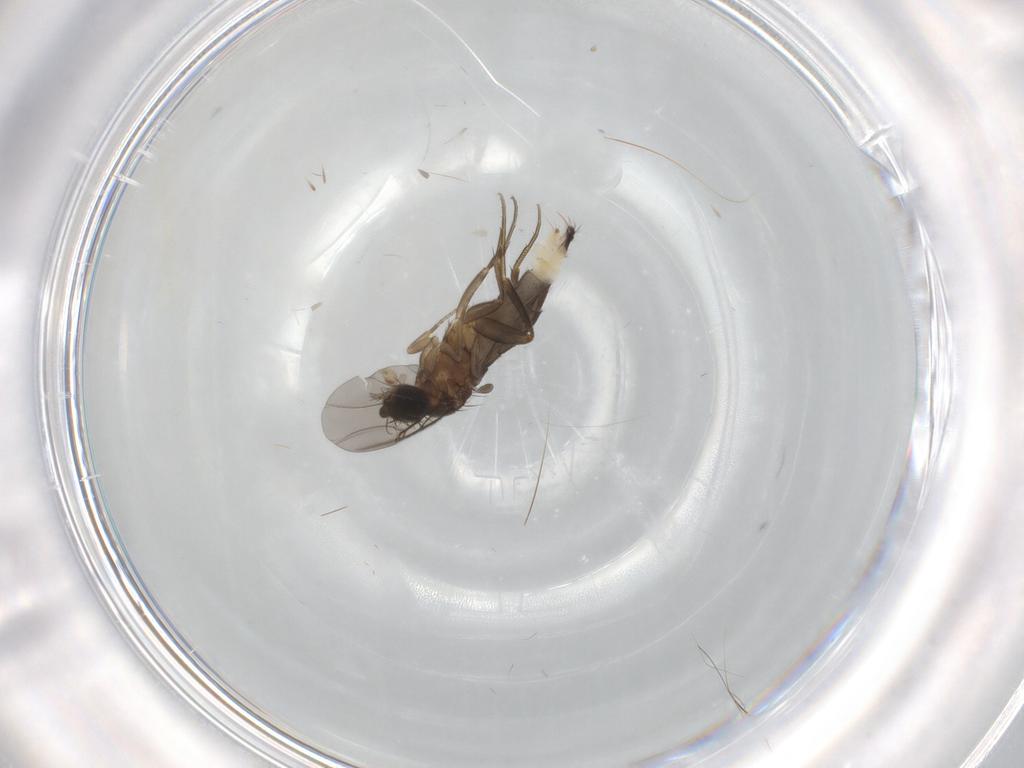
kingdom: Animalia
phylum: Arthropoda
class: Insecta
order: Diptera
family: Phoridae
